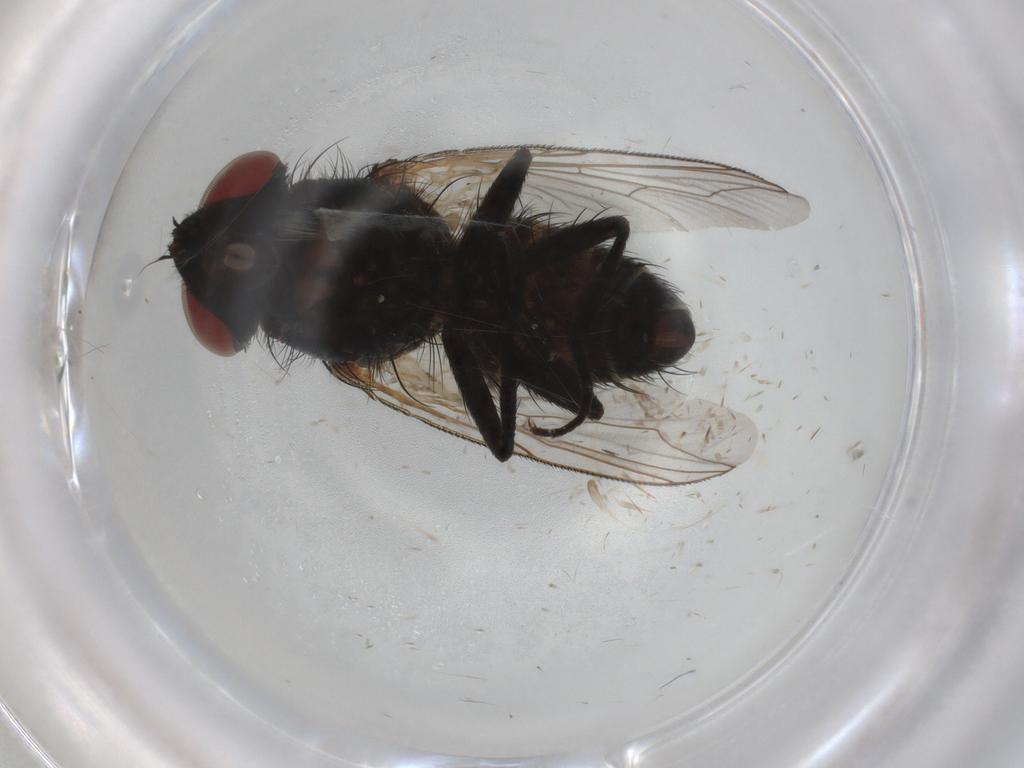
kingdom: Animalia
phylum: Arthropoda
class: Insecta
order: Diptera
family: Sarcophagidae
